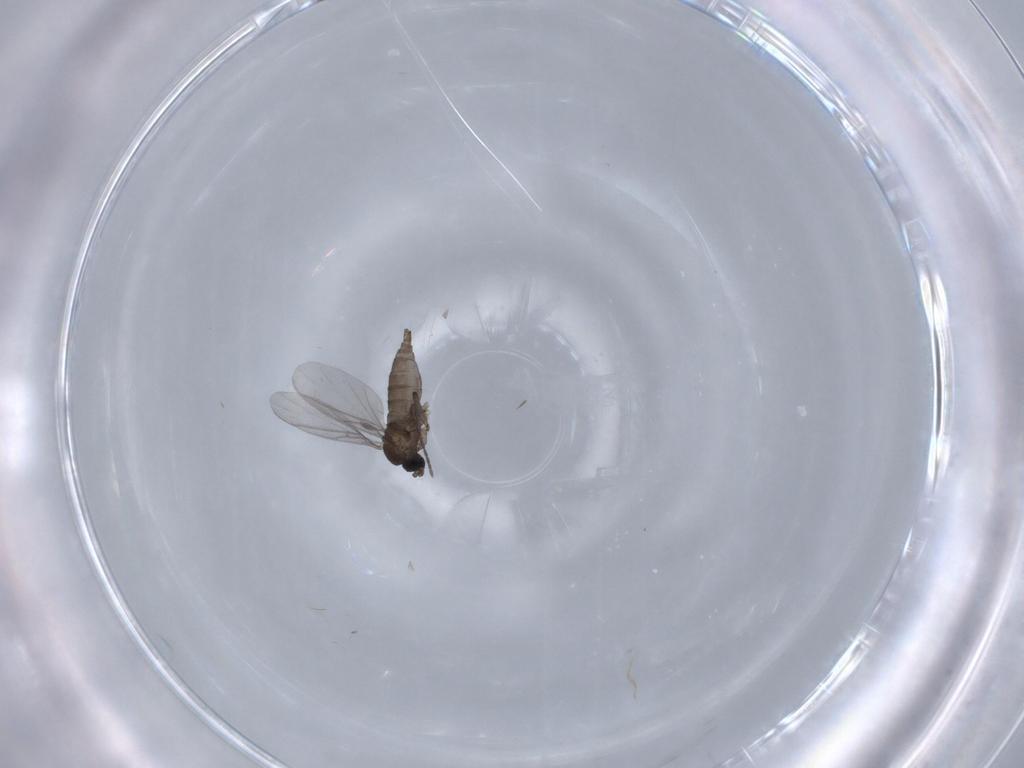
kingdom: Animalia
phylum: Arthropoda
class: Insecta
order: Diptera
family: Sciaridae
